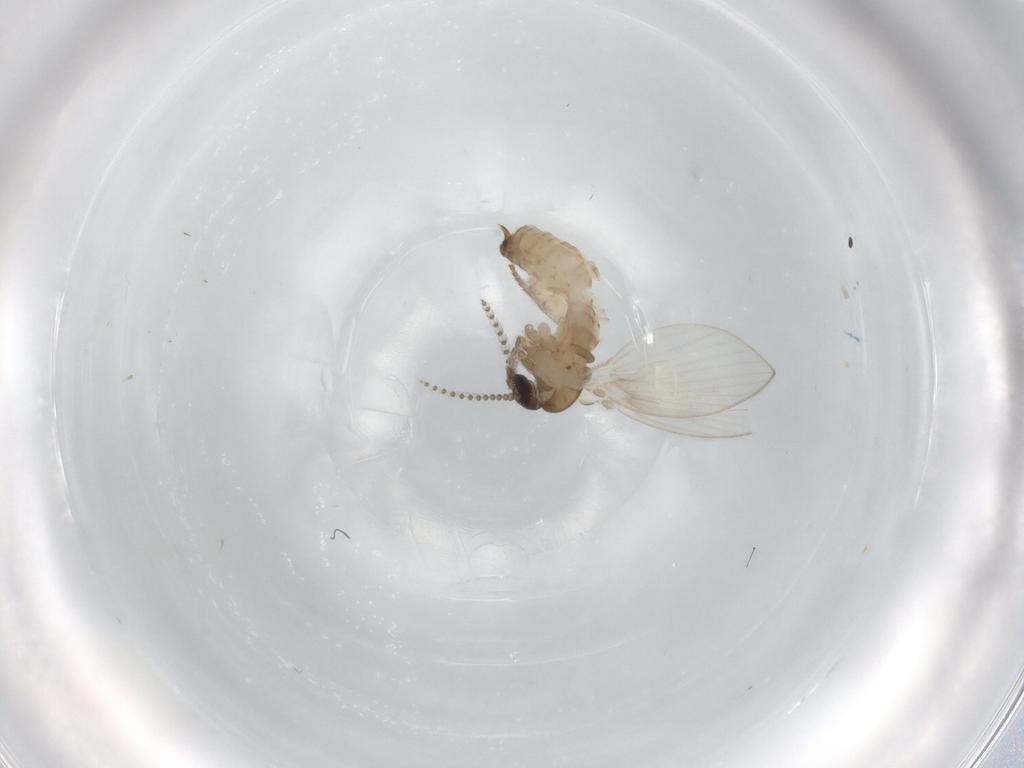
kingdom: Animalia
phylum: Arthropoda
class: Insecta
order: Diptera
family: Psychodidae
